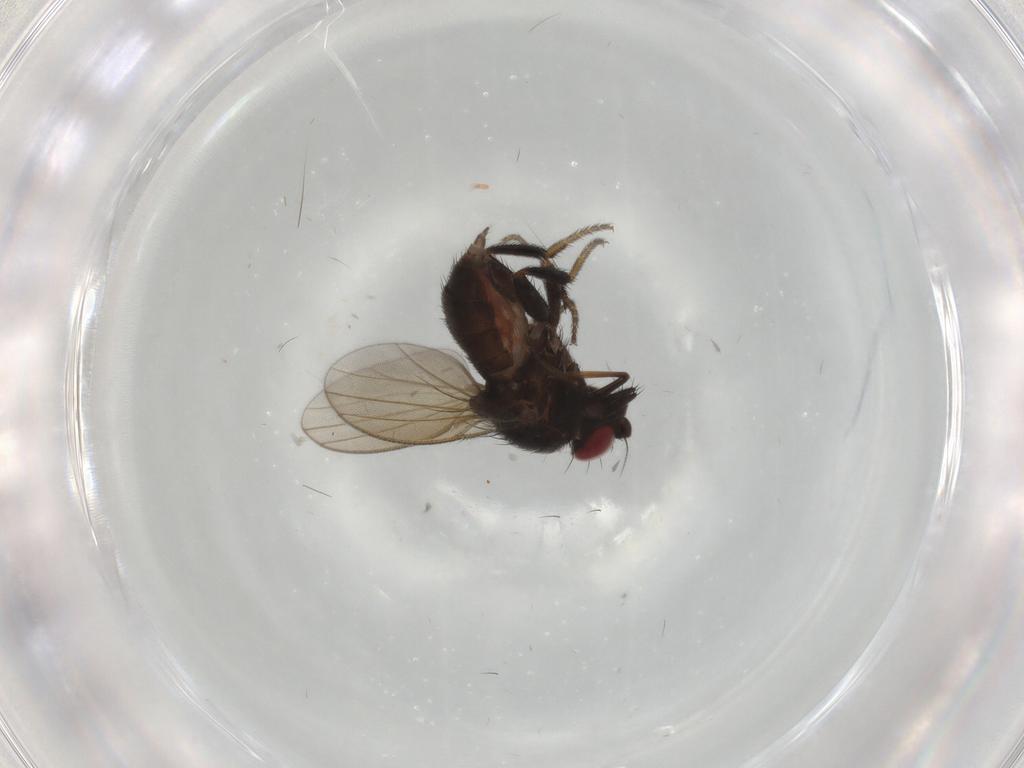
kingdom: Animalia
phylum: Arthropoda
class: Insecta
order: Diptera
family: Milichiidae
